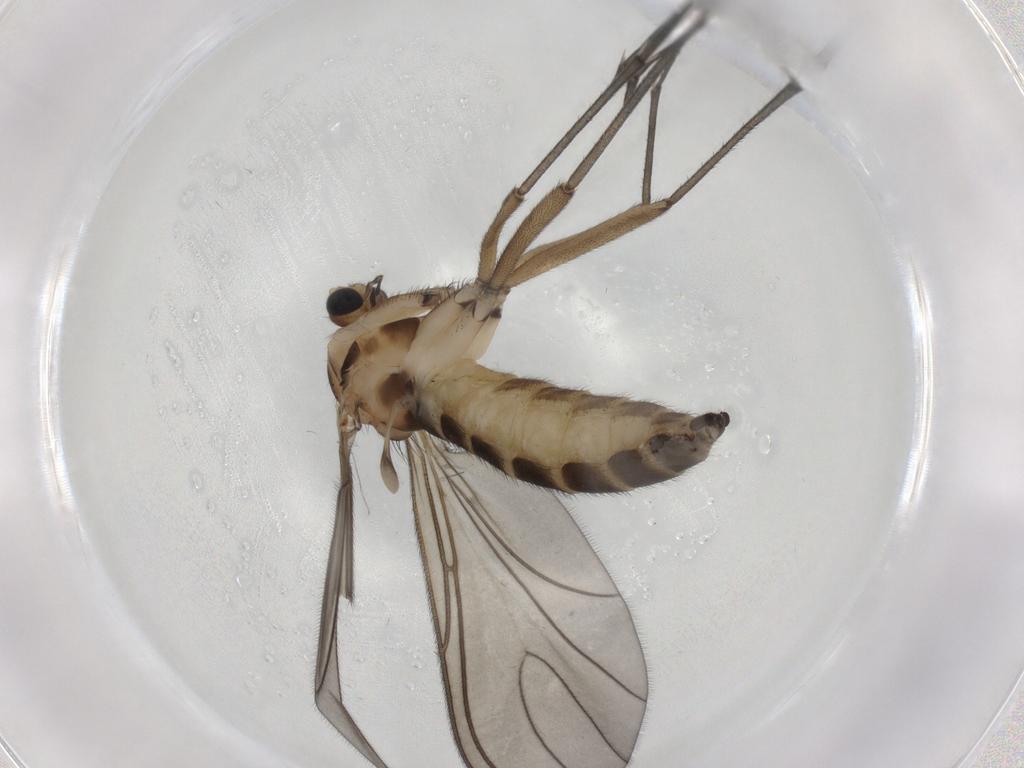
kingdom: Animalia
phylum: Arthropoda
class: Insecta
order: Diptera
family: Sciaridae
